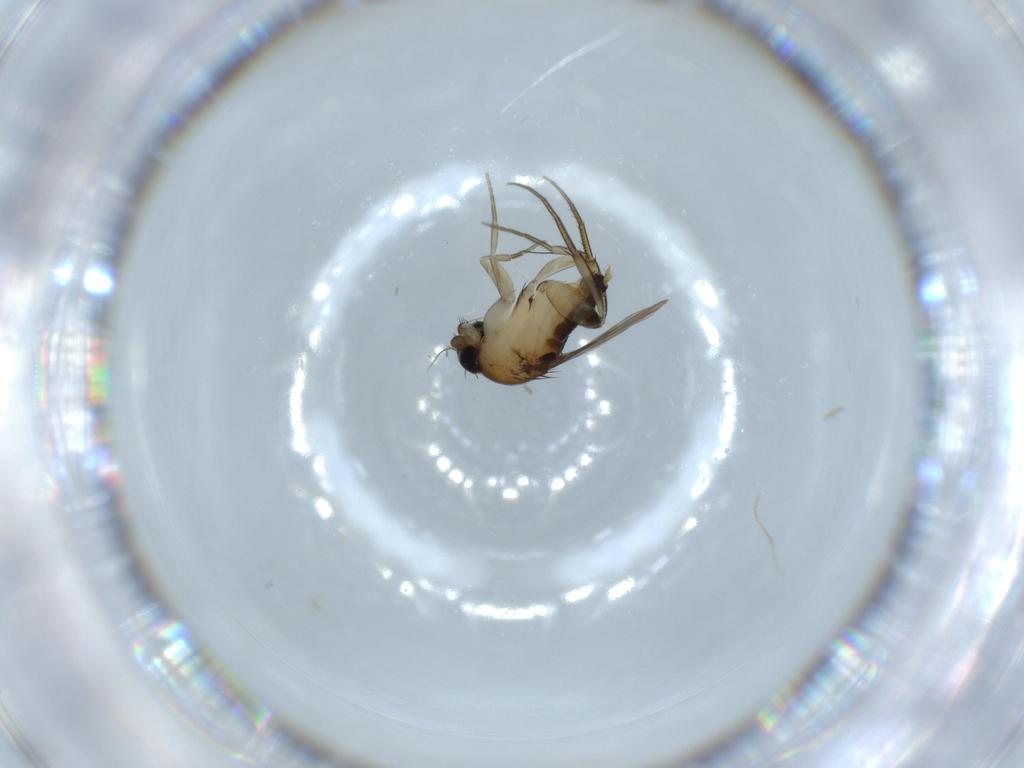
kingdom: Animalia
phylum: Arthropoda
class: Insecta
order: Diptera
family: Phoridae
